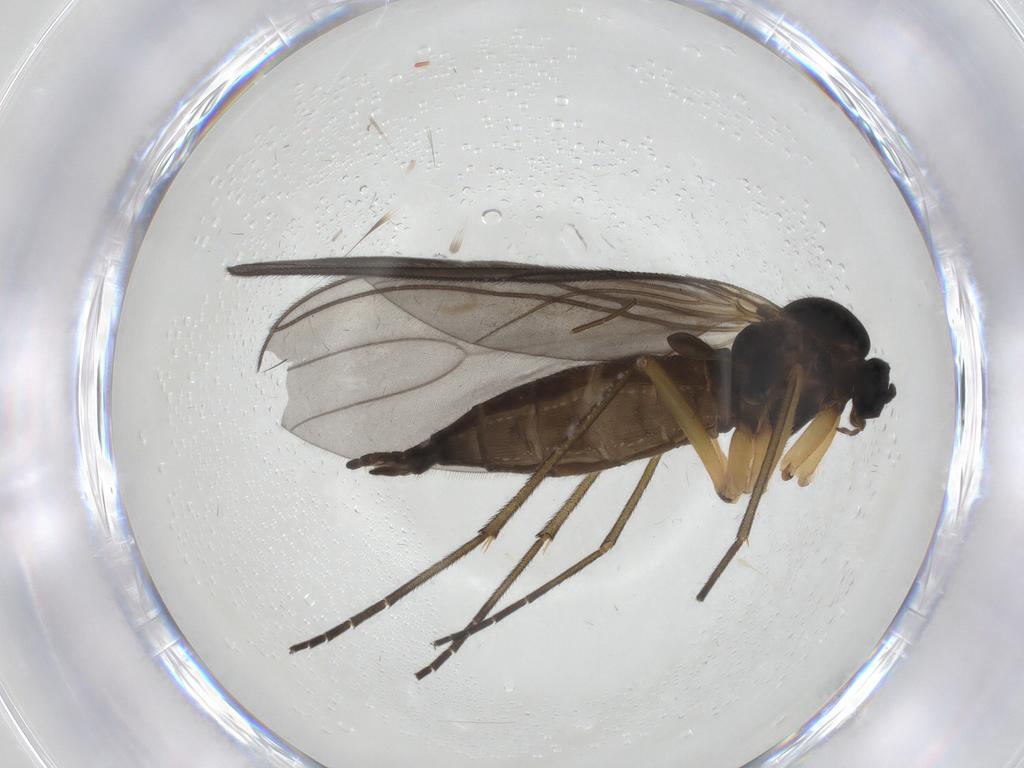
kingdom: Animalia
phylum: Arthropoda
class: Insecta
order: Diptera
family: Sciaridae
